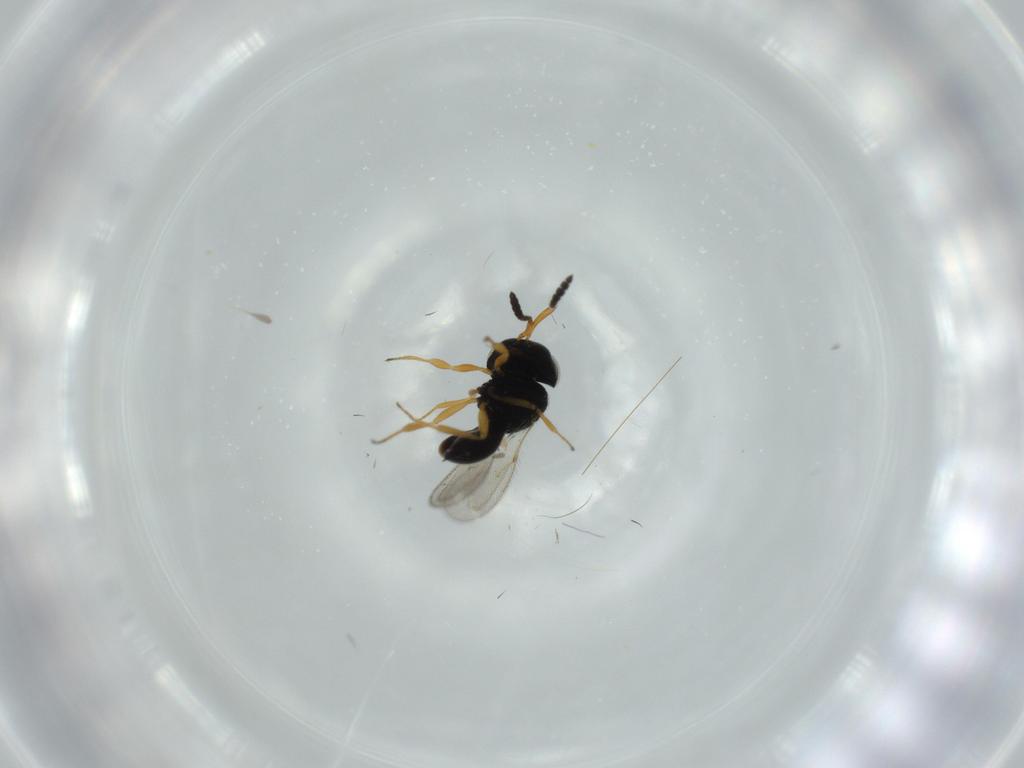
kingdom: Animalia
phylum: Arthropoda
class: Insecta
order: Hymenoptera
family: Scelionidae
